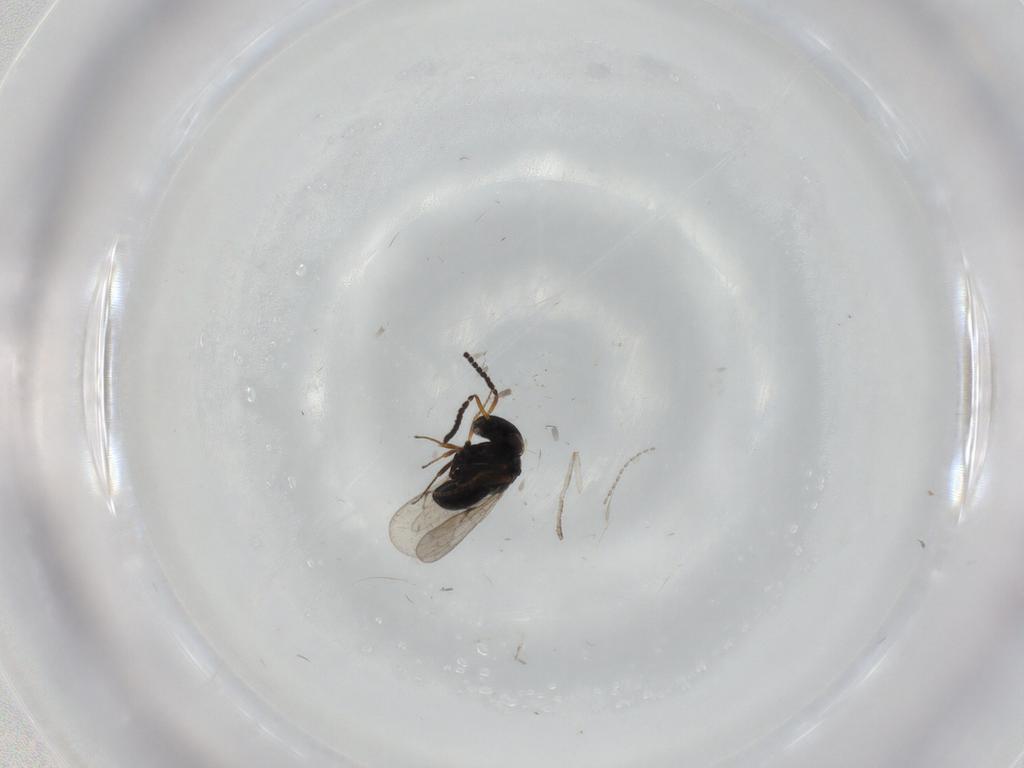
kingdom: Animalia
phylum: Arthropoda
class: Insecta
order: Hymenoptera
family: Scelionidae
